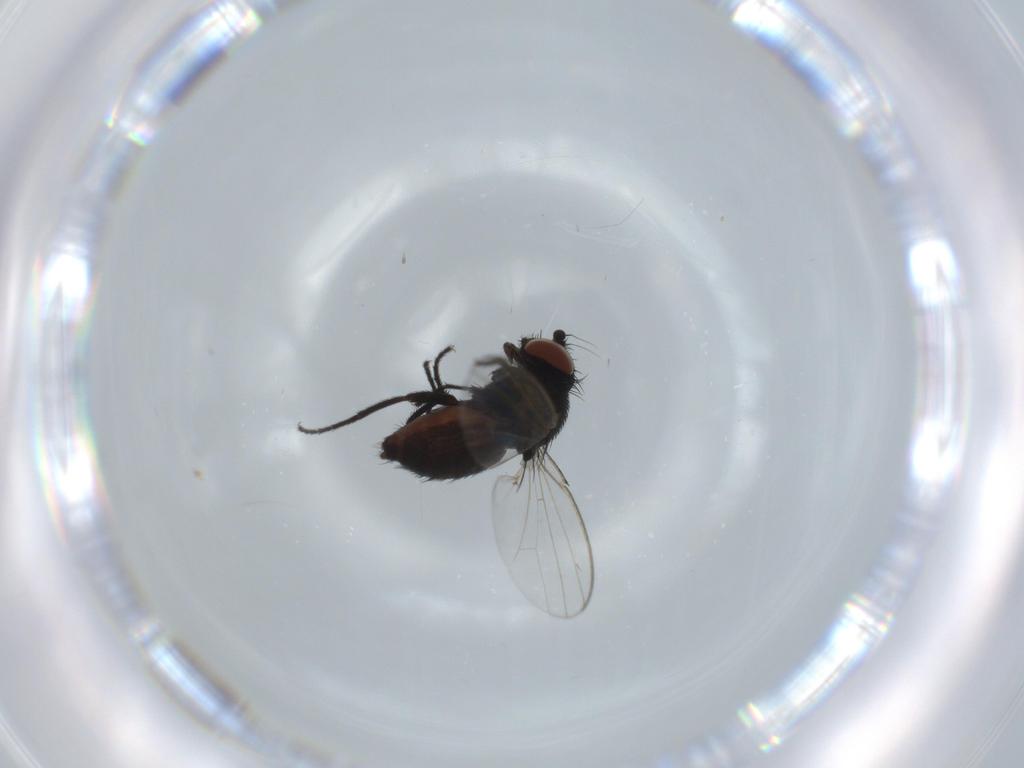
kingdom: Animalia
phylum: Arthropoda
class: Insecta
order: Diptera
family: Milichiidae
